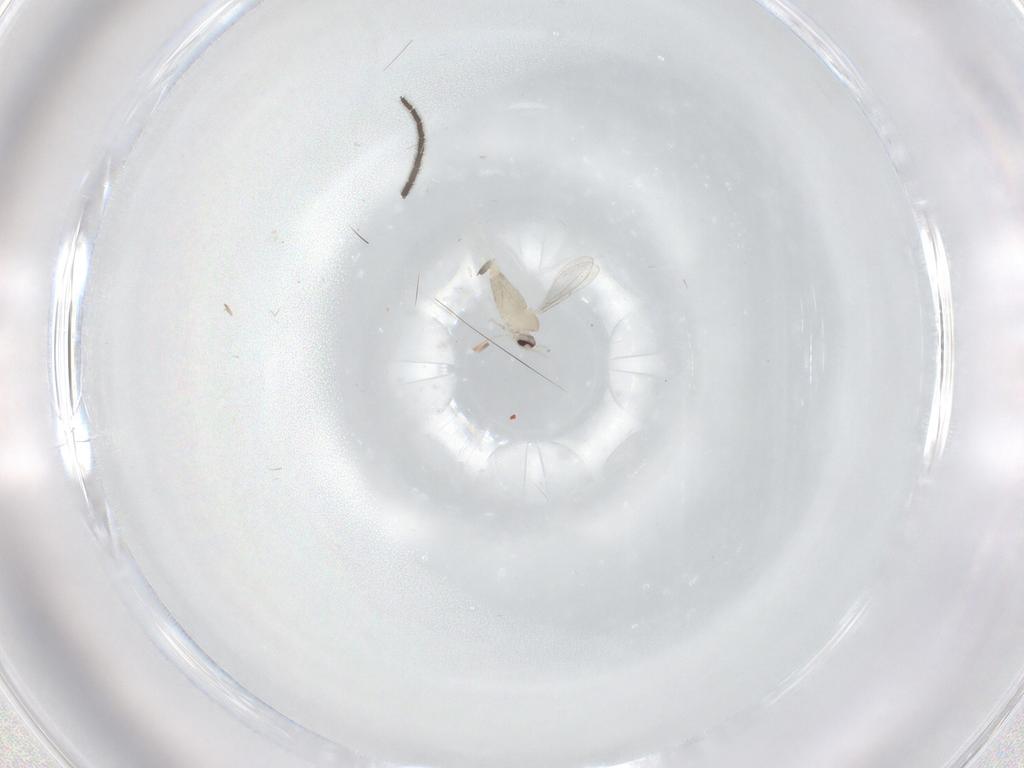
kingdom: Animalia
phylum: Arthropoda
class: Insecta
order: Diptera
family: Cecidomyiidae
